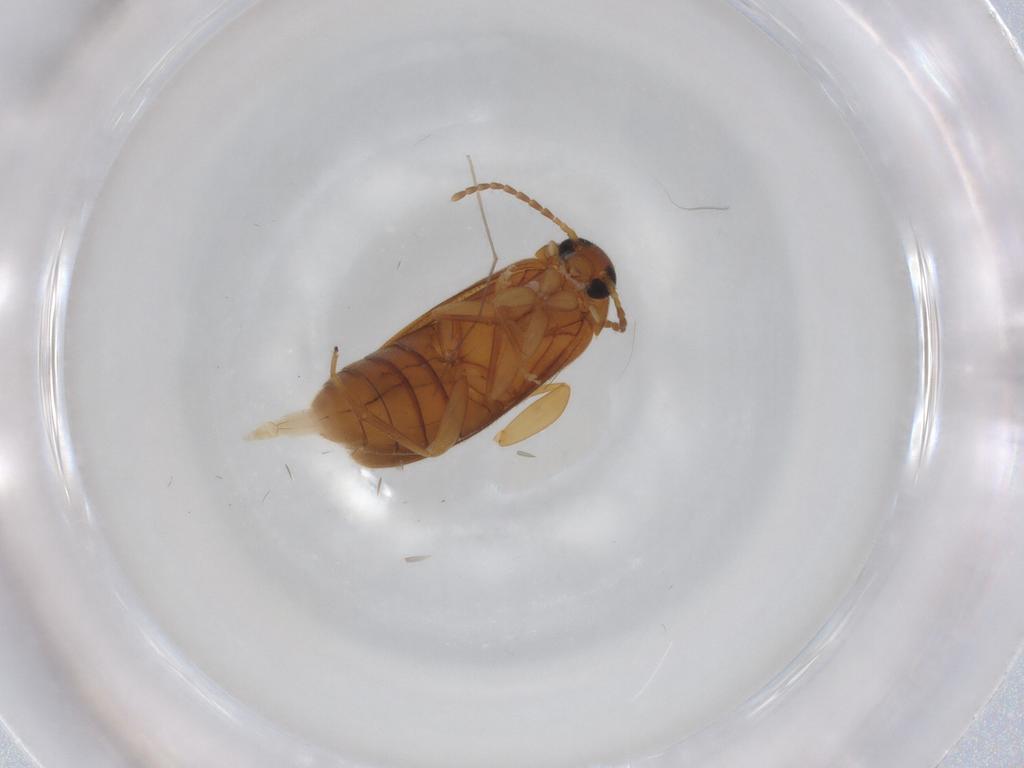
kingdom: Animalia
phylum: Arthropoda
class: Insecta
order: Coleoptera
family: Scraptiidae
